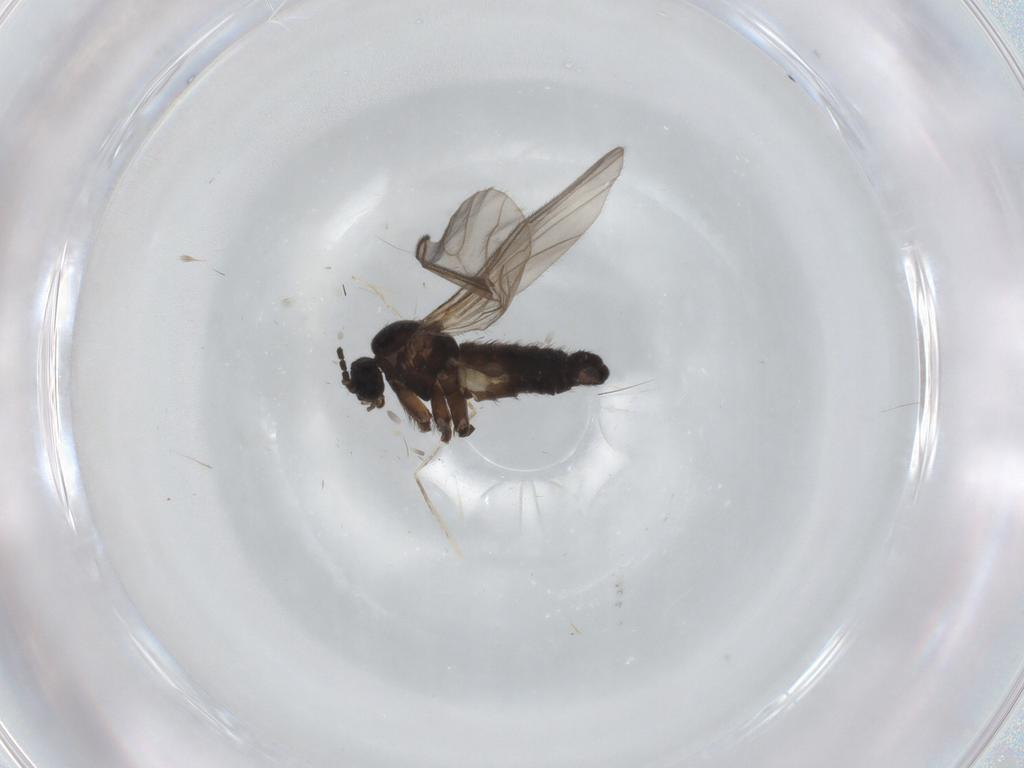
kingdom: Animalia
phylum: Arthropoda
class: Insecta
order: Diptera
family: Sciaridae
